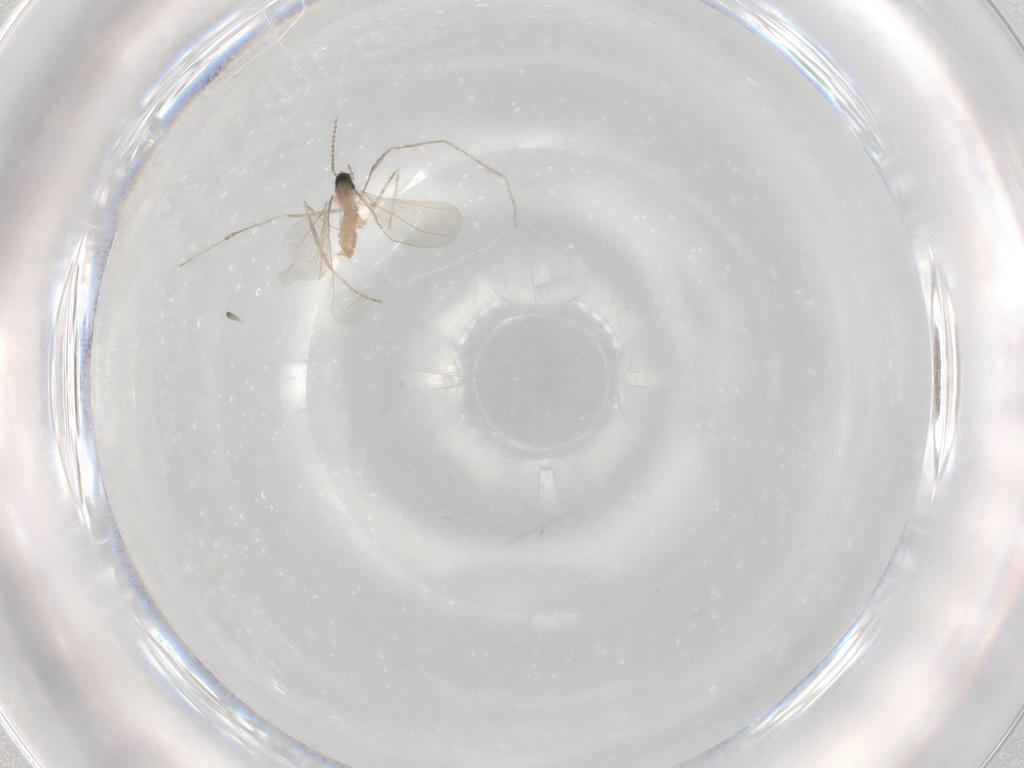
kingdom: Animalia
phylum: Arthropoda
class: Insecta
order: Diptera
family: Cecidomyiidae
